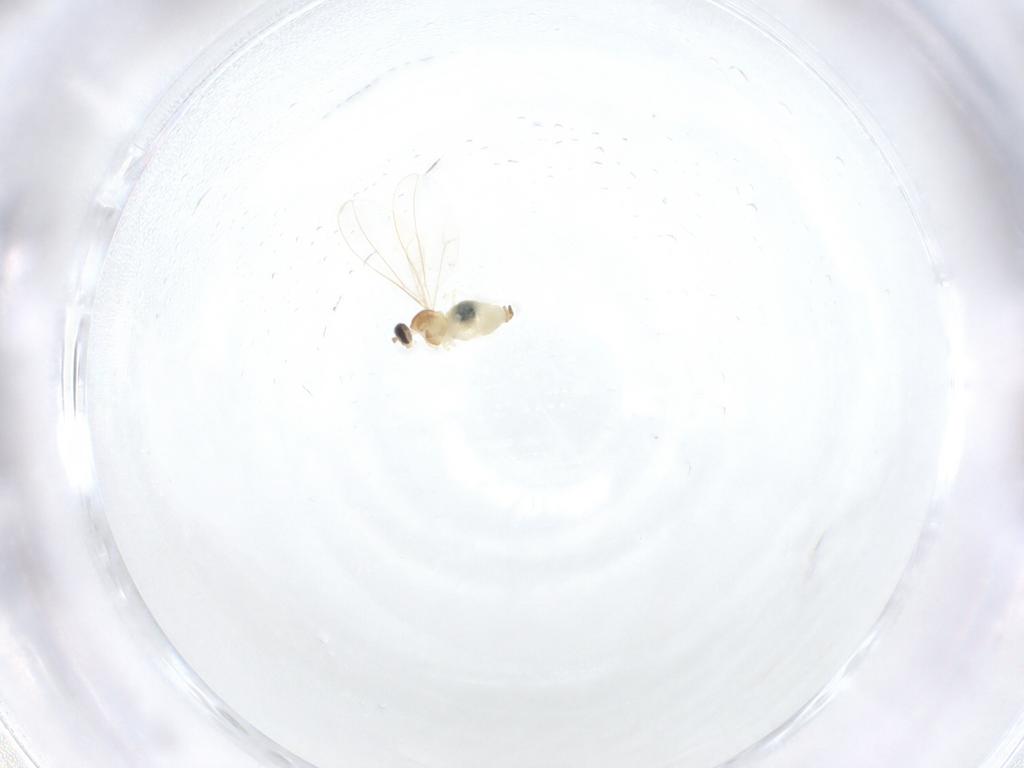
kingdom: Animalia
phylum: Arthropoda
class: Insecta
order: Diptera
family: Cecidomyiidae
